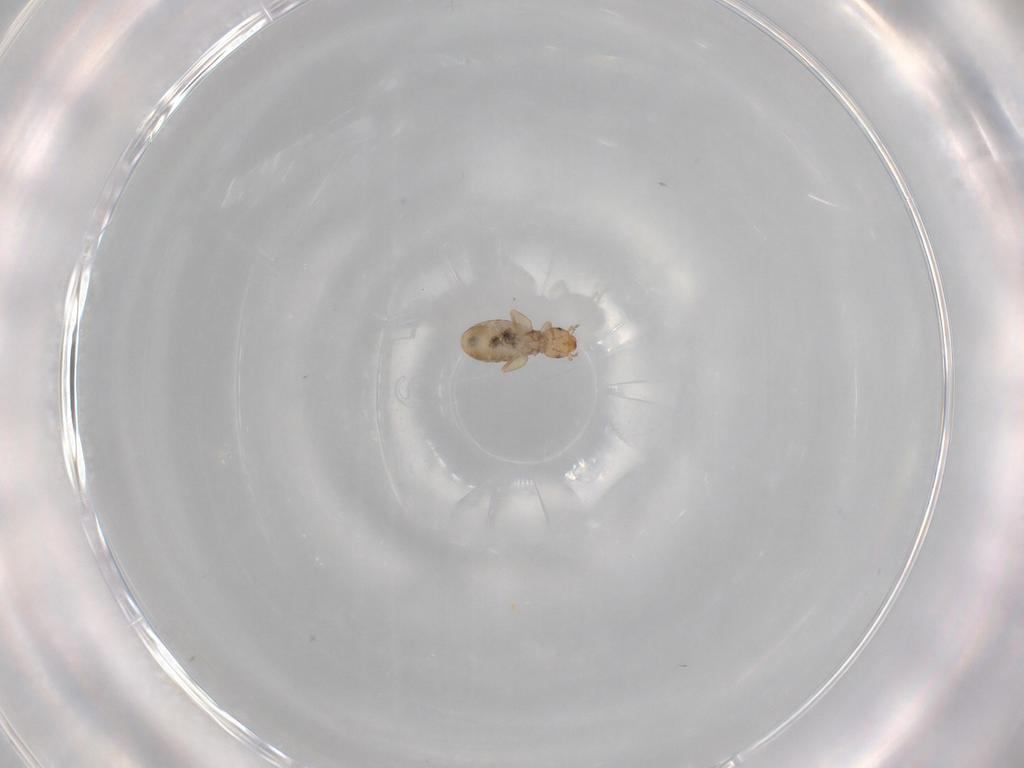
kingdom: Animalia
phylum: Arthropoda
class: Insecta
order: Psocodea
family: Liposcelididae
